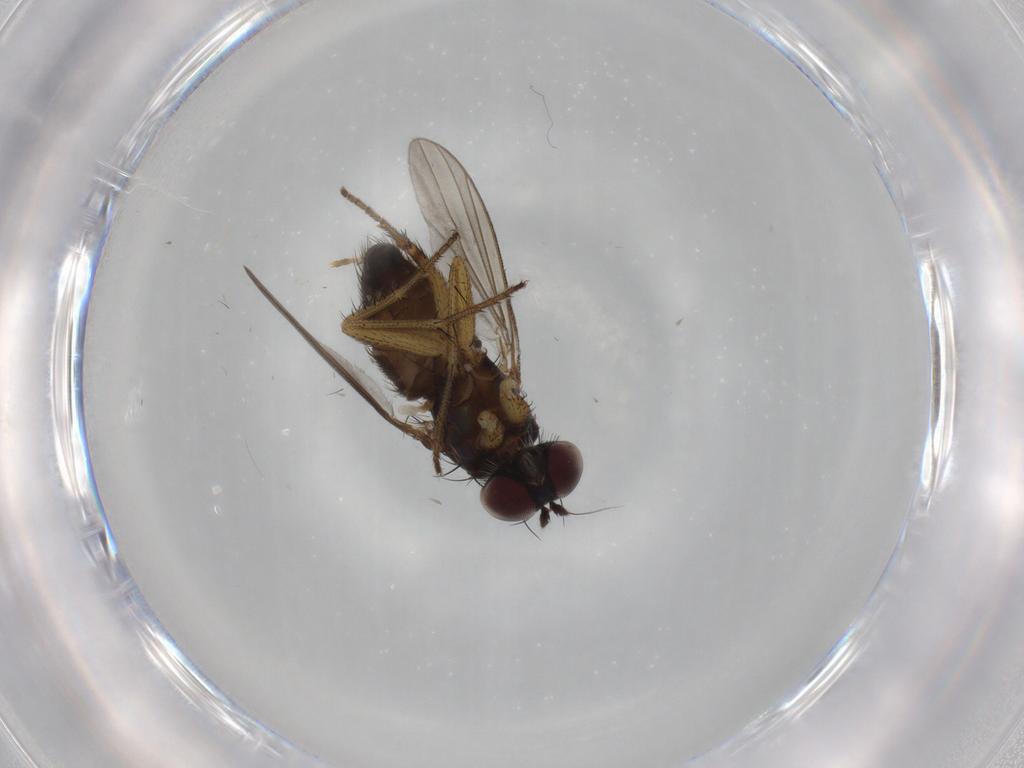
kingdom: Animalia
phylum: Arthropoda
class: Insecta
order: Diptera
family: Dolichopodidae
